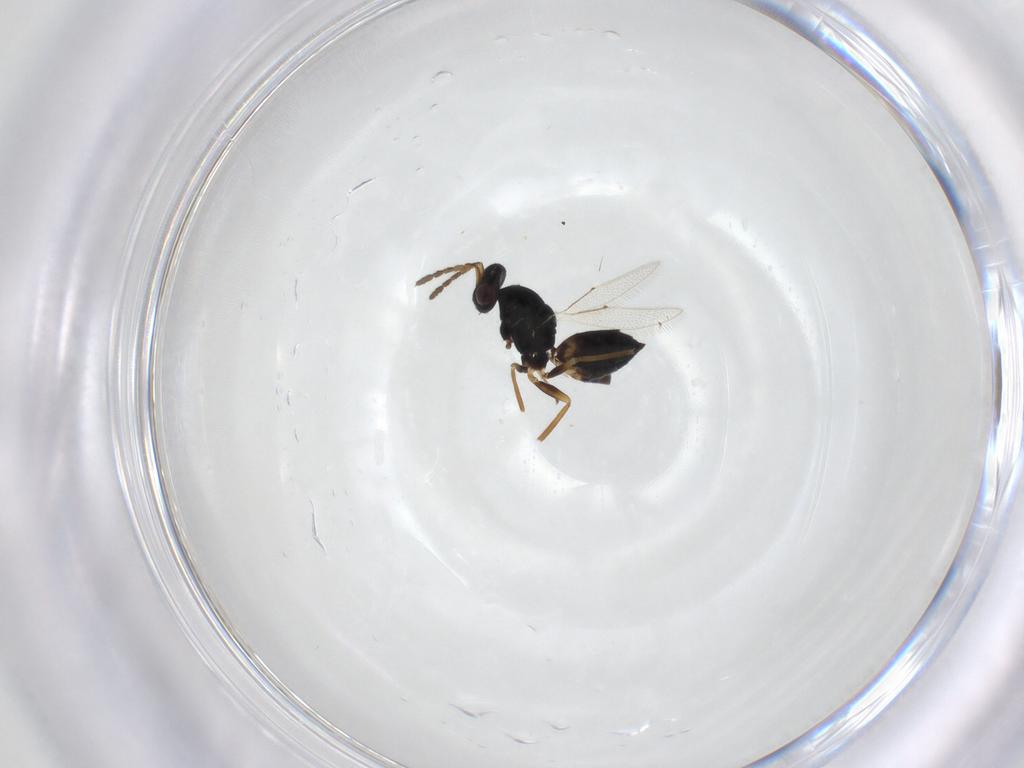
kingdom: Animalia
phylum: Arthropoda
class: Insecta
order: Hymenoptera
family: Eulophidae
